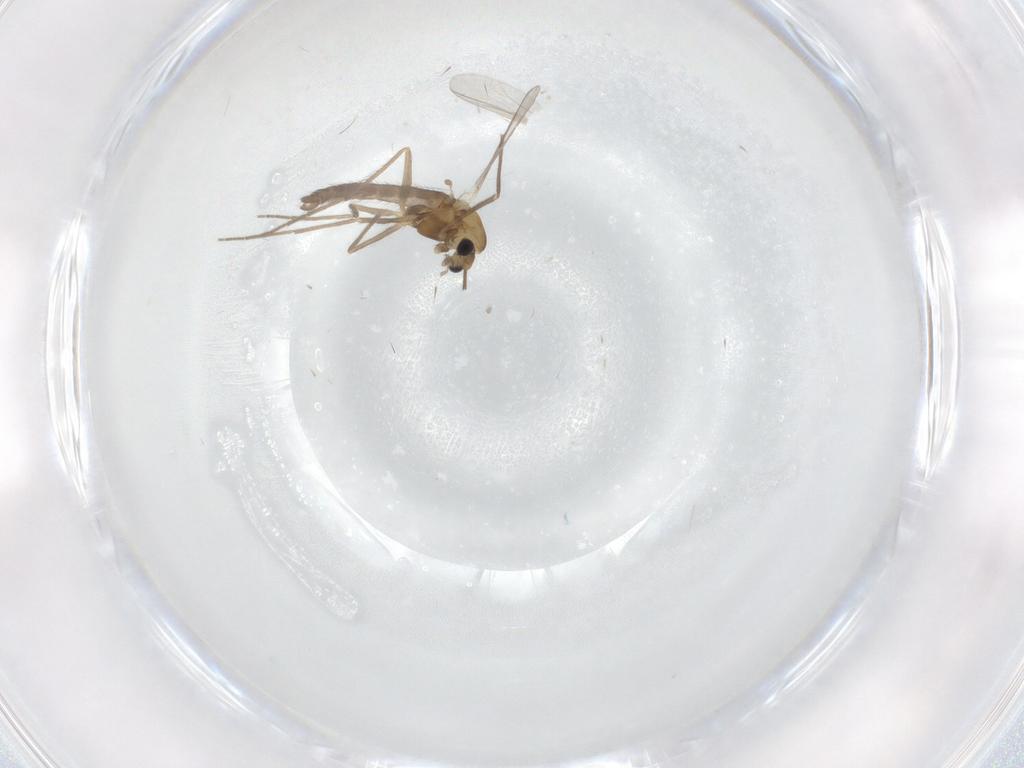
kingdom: Animalia
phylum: Arthropoda
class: Insecta
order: Diptera
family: Chironomidae
